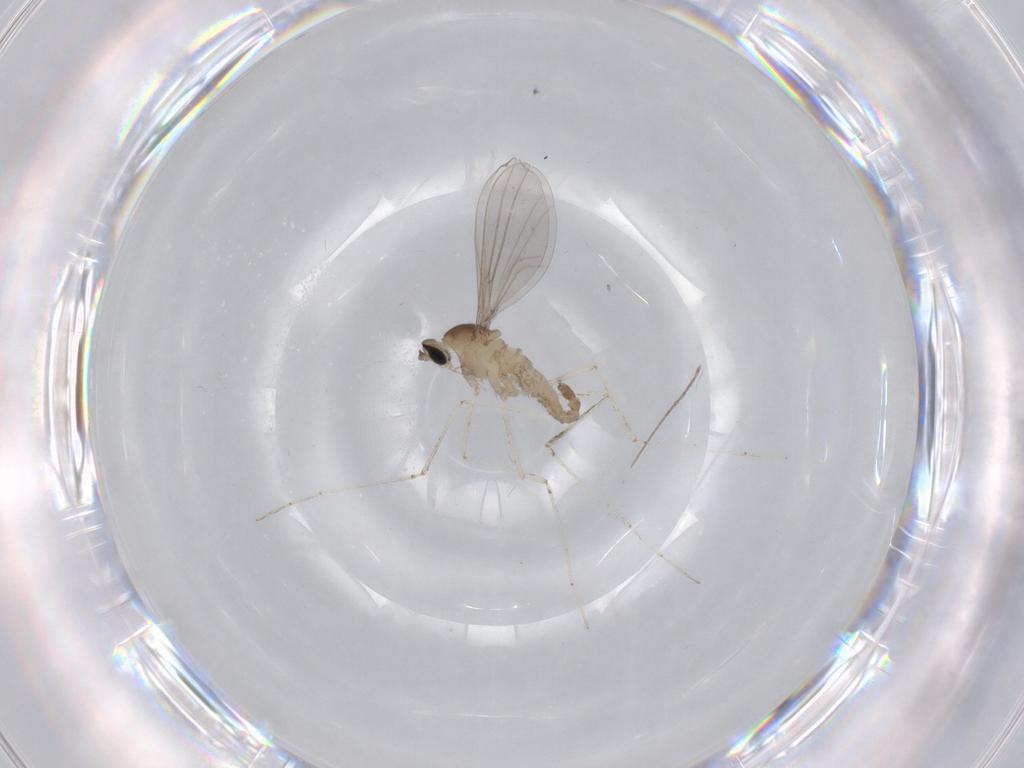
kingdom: Animalia
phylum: Arthropoda
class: Insecta
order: Diptera
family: Cecidomyiidae
